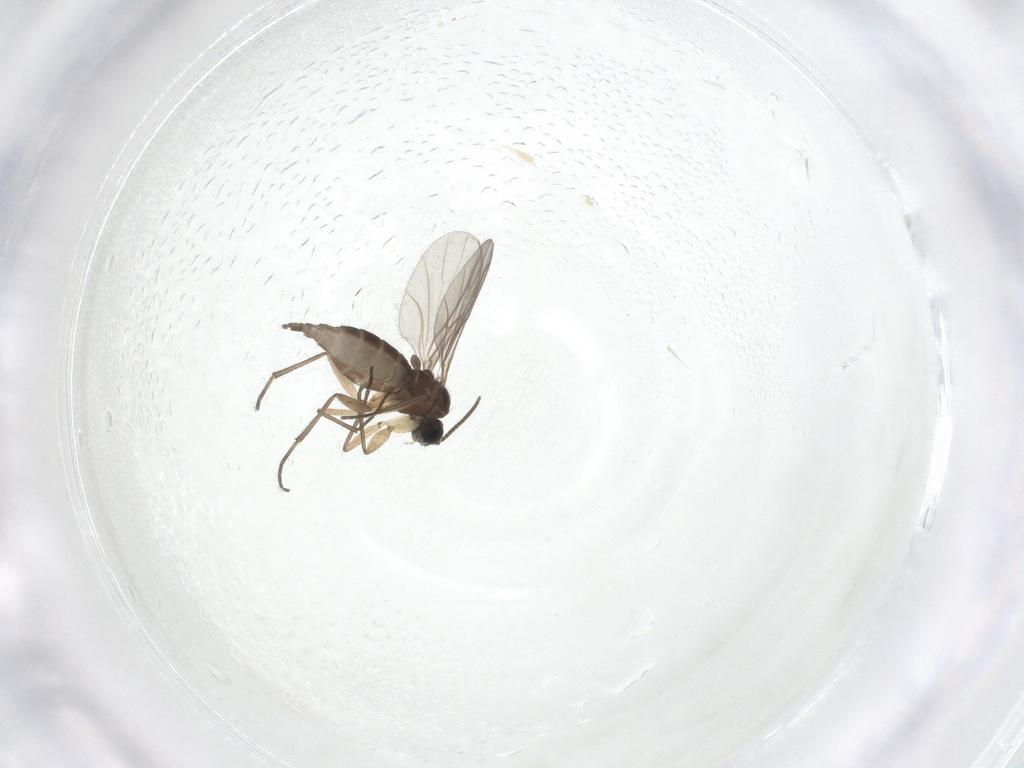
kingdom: Animalia
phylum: Arthropoda
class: Insecta
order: Diptera
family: Sciaridae
